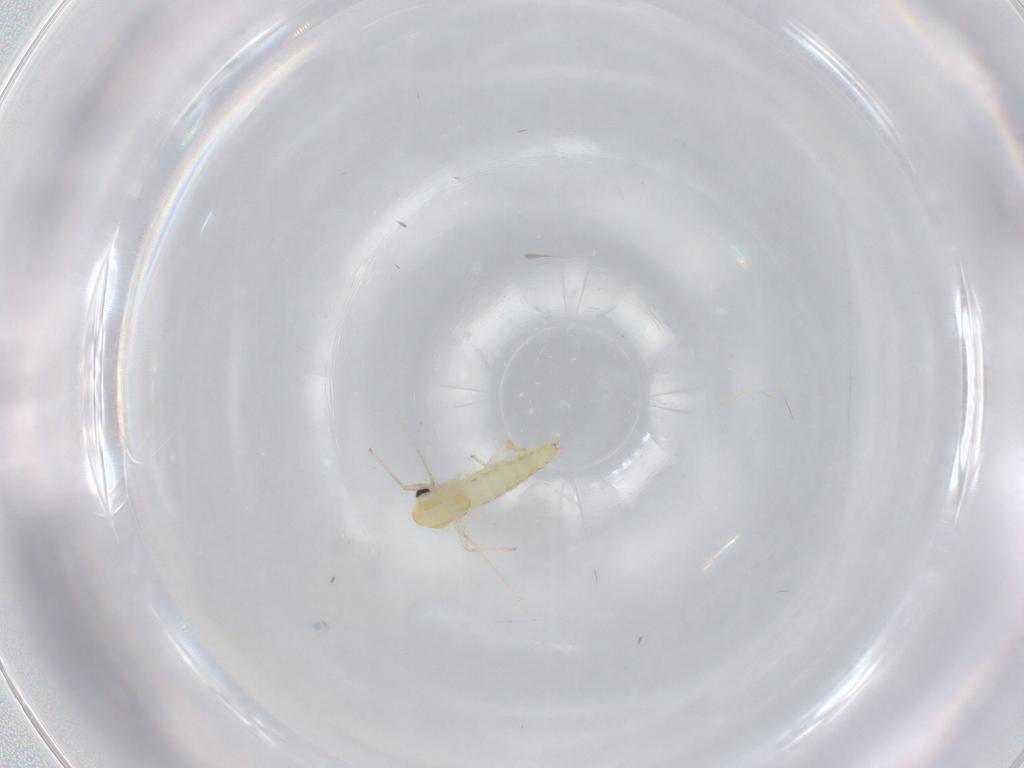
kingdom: Animalia
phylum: Arthropoda
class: Insecta
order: Diptera
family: Chironomidae
